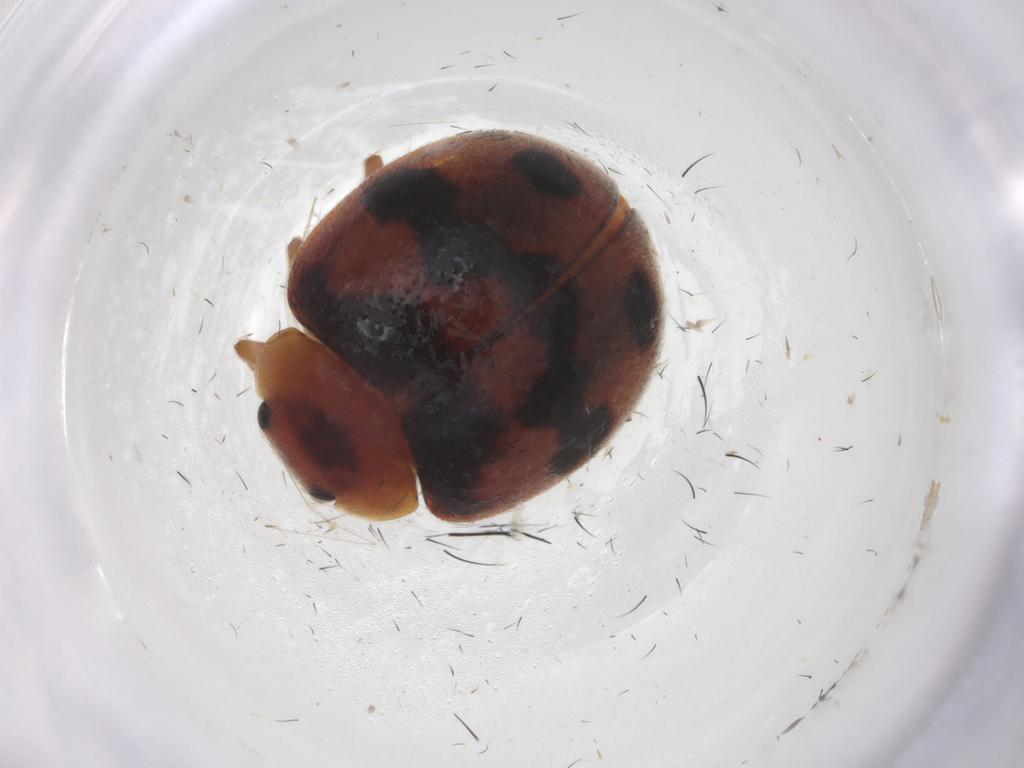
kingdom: Animalia
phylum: Arthropoda
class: Insecta
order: Coleoptera
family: Coccinellidae
